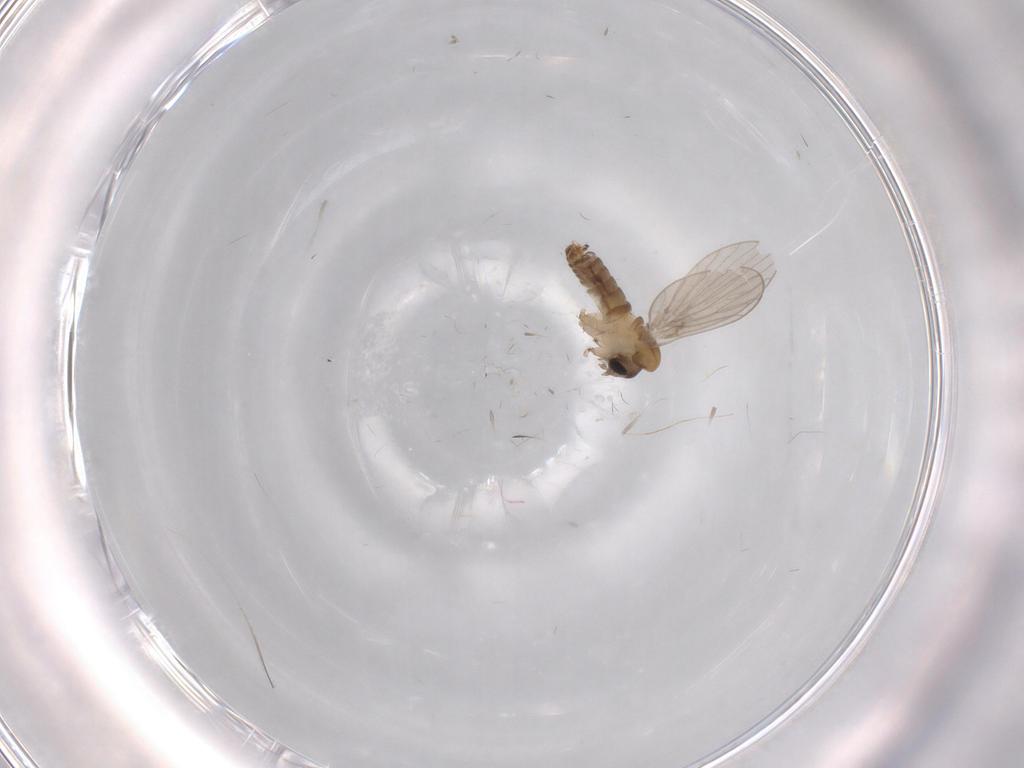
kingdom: Animalia
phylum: Arthropoda
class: Insecta
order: Diptera
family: Psychodidae
